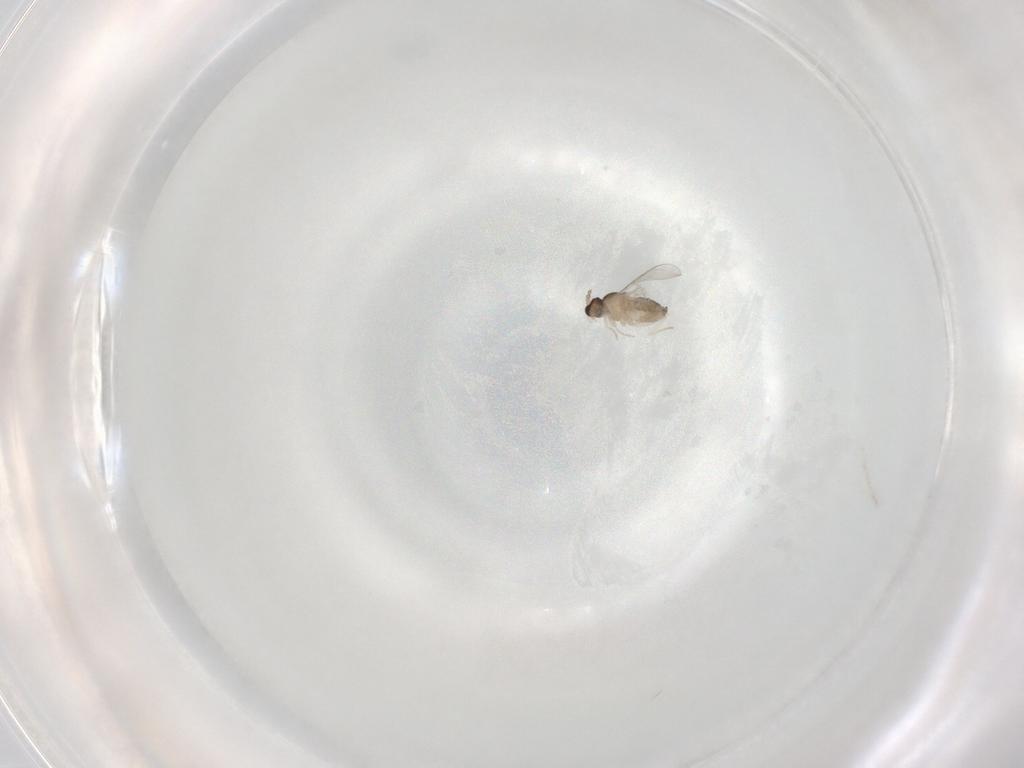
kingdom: Animalia
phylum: Arthropoda
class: Insecta
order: Diptera
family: Cecidomyiidae
